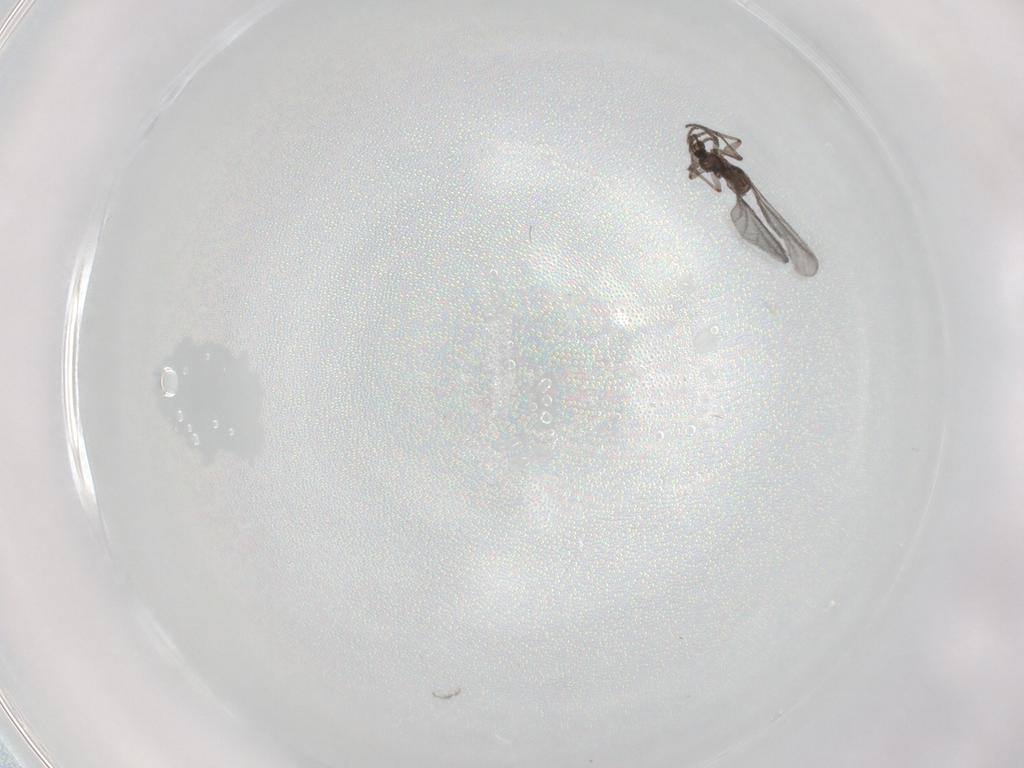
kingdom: Animalia
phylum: Arthropoda
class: Insecta
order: Diptera
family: Sciaridae
